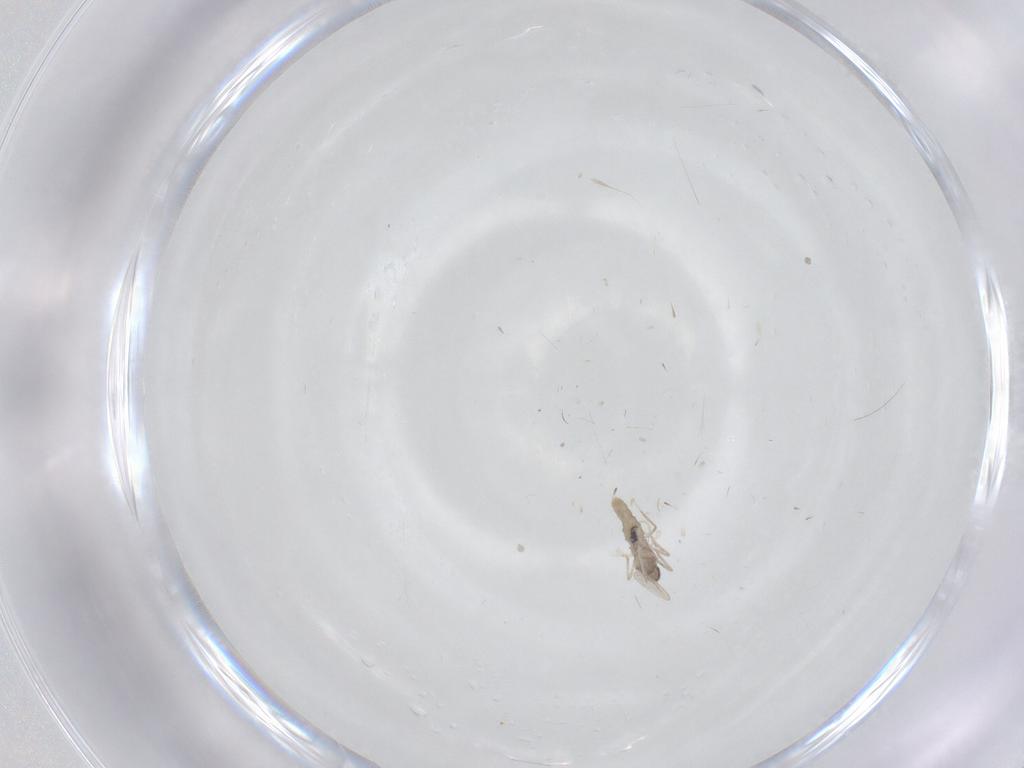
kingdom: Animalia
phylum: Arthropoda
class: Insecta
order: Diptera
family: Cecidomyiidae
